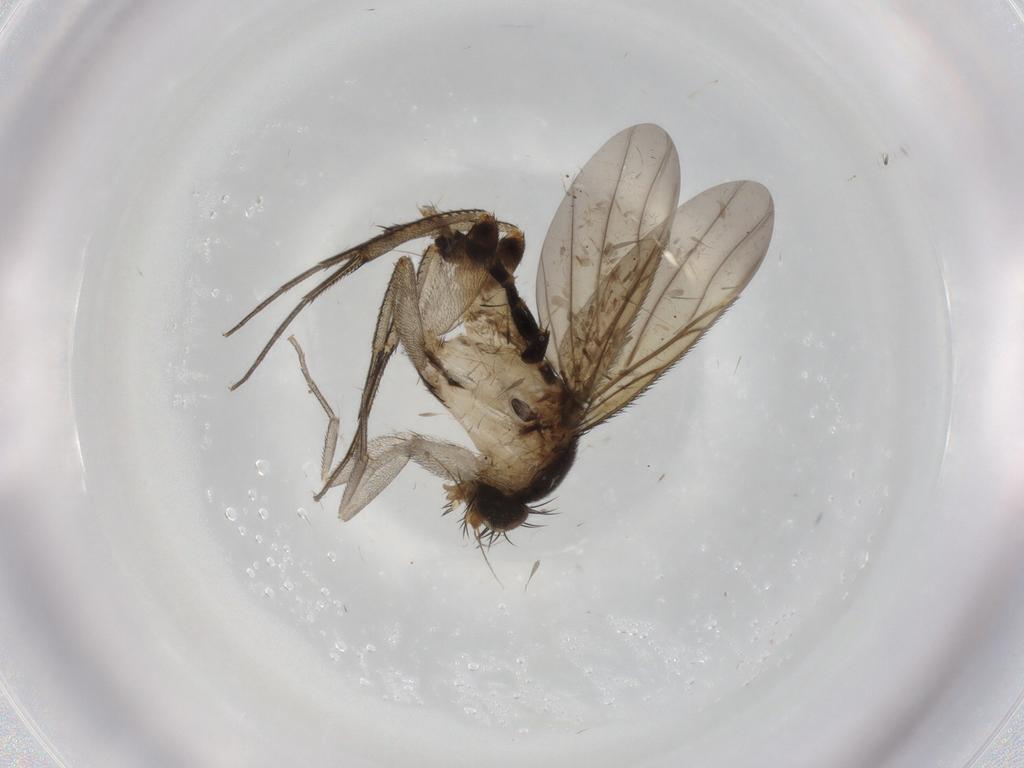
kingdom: Animalia
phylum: Arthropoda
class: Insecta
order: Diptera
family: Phoridae
